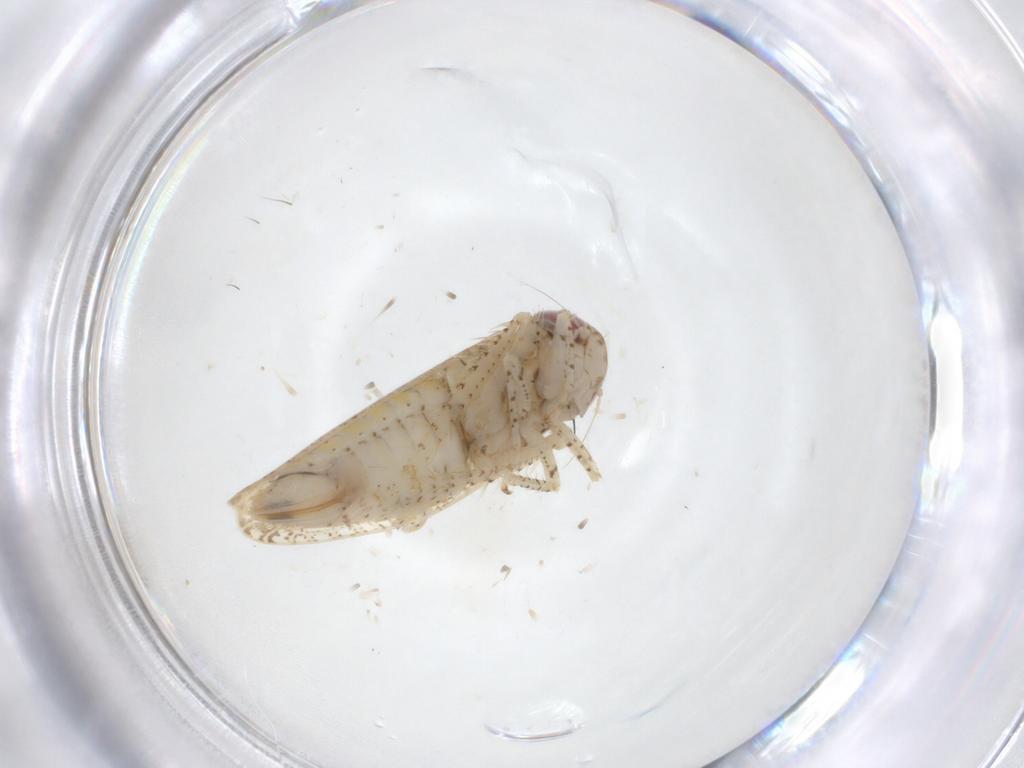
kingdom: Animalia
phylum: Arthropoda
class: Insecta
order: Hemiptera
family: Cicadellidae
